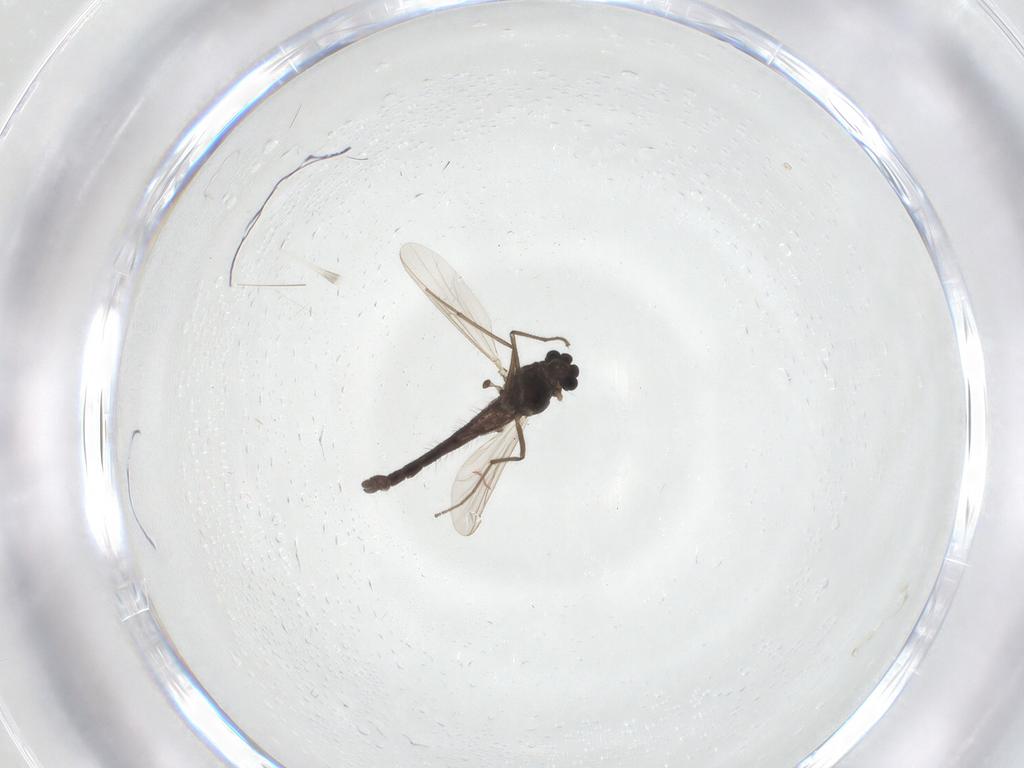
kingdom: Animalia
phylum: Arthropoda
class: Insecta
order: Diptera
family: Chironomidae
